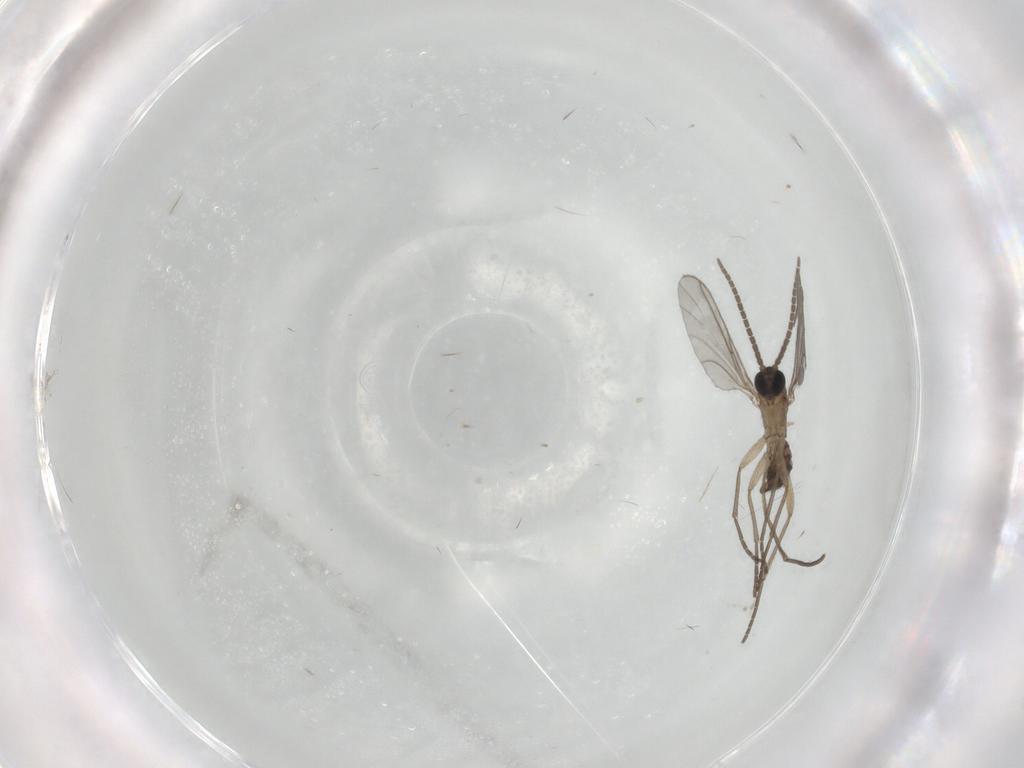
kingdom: Animalia
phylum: Arthropoda
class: Insecta
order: Diptera
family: Sciaridae
